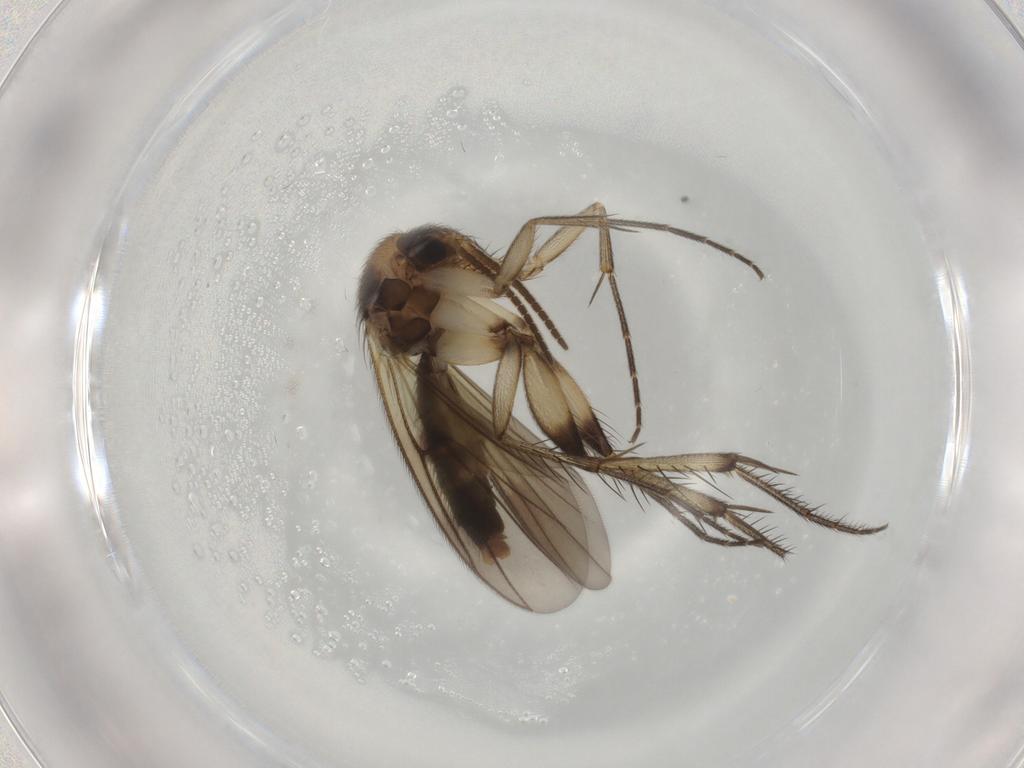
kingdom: Animalia
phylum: Arthropoda
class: Insecta
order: Diptera
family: Mycetophilidae
